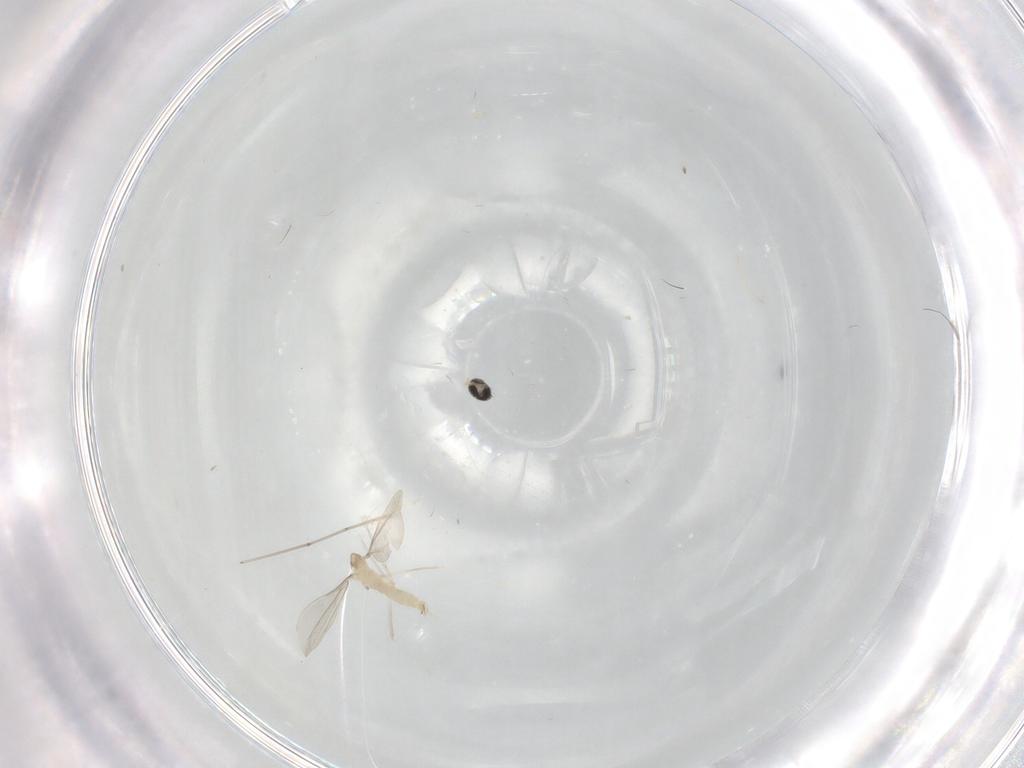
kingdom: Animalia
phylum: Arthropoda
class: Insecta
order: Diptera
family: Cecidomyiidae
